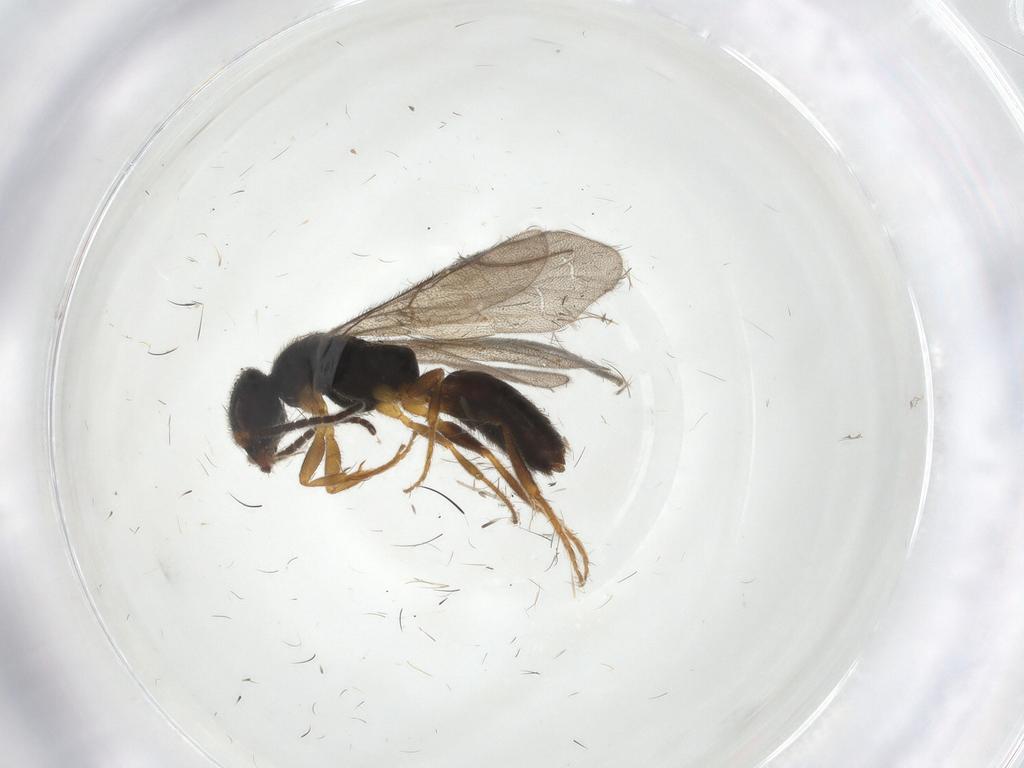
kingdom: Animalia
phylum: Arthropoda
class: Insecta
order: Hymenoptera
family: Bethylidae
